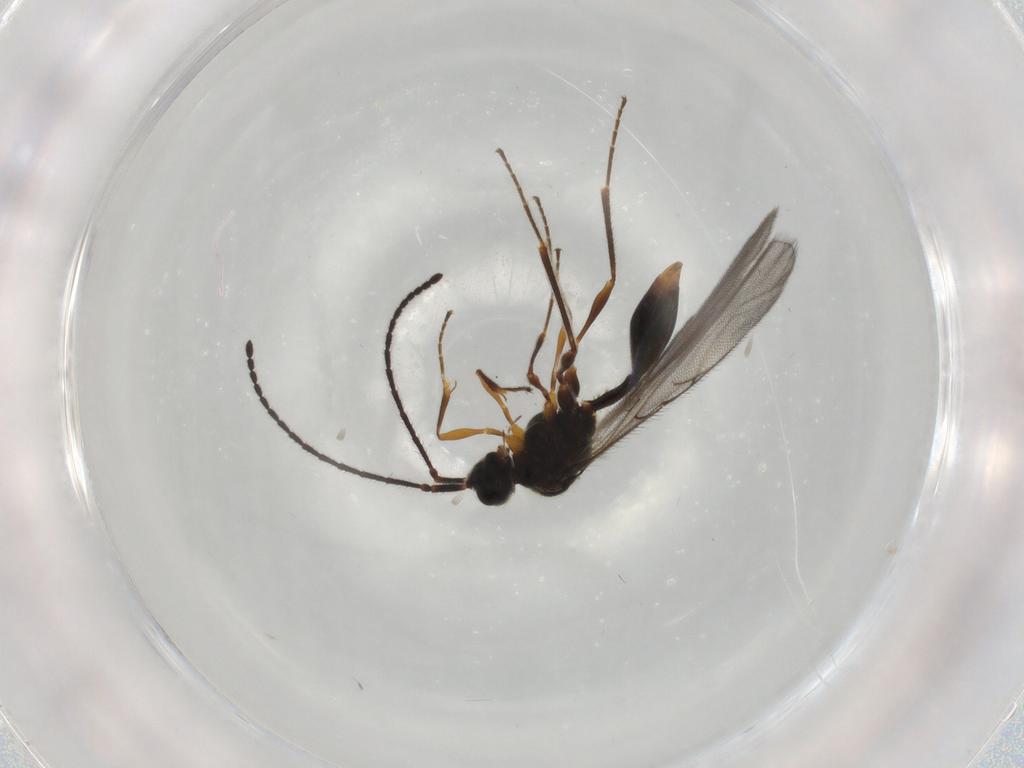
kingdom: Animalia
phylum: Arthropoda
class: Insecta
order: Hymenoptera
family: Diapriidae
